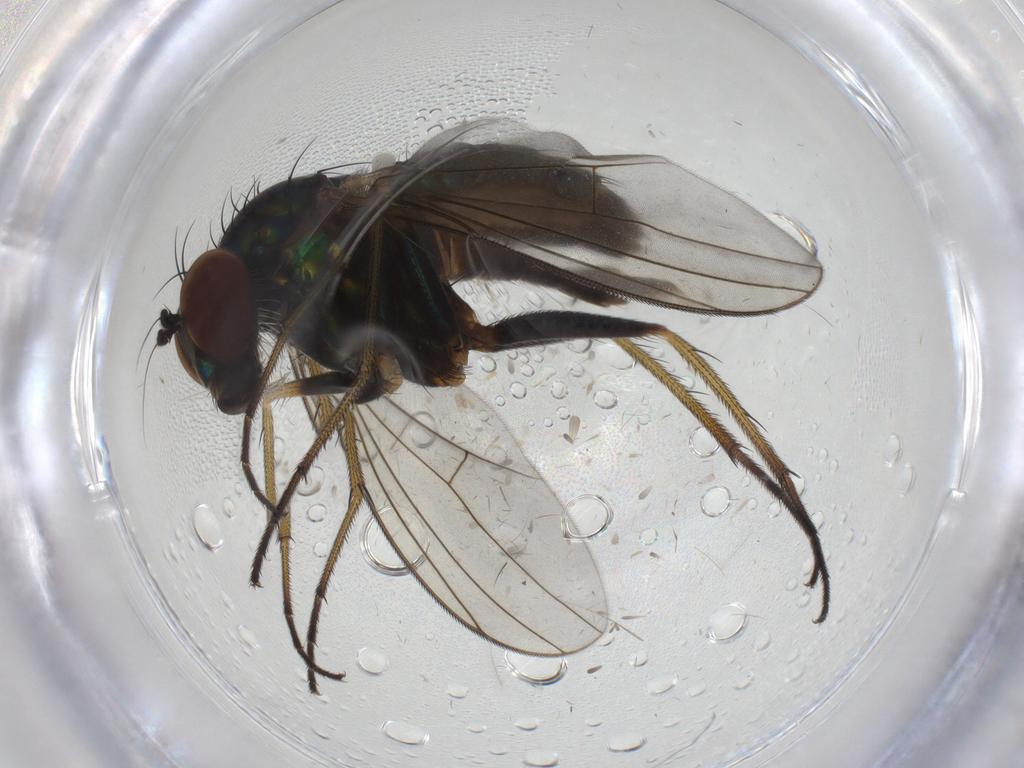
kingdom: Animalia
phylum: Arthropoda
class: Insecta
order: Diptera
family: Dolichopodidae
